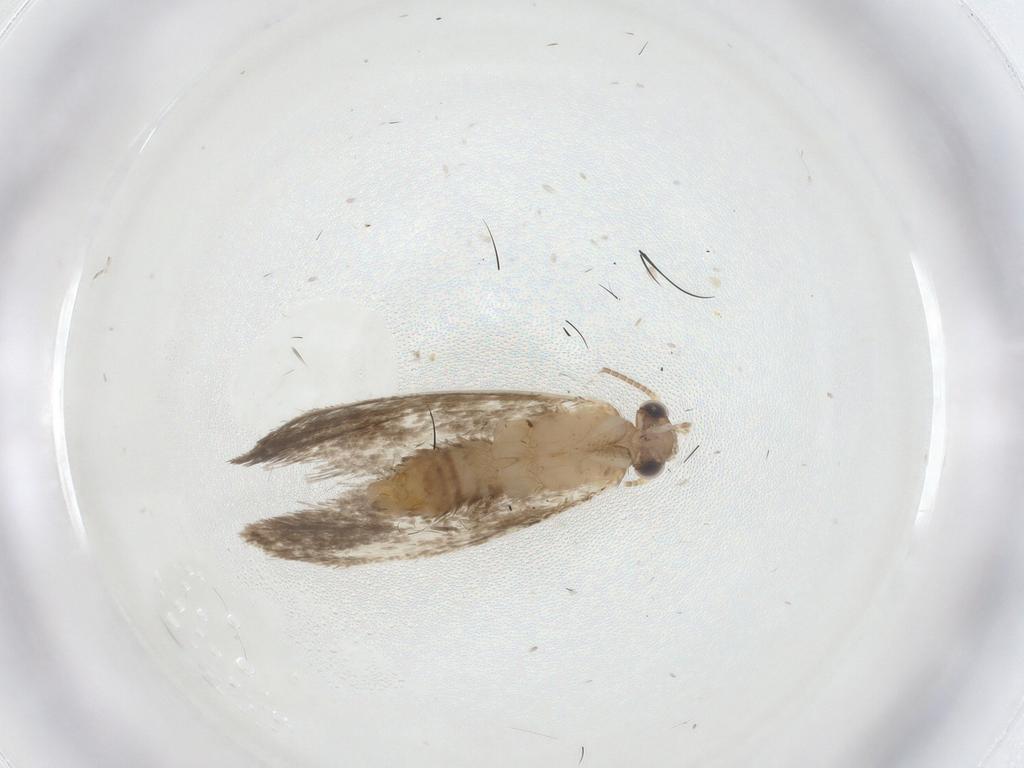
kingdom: Animalia
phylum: Arthropoda
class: Insecta
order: Lepidoptera
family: Dryadaulidae
